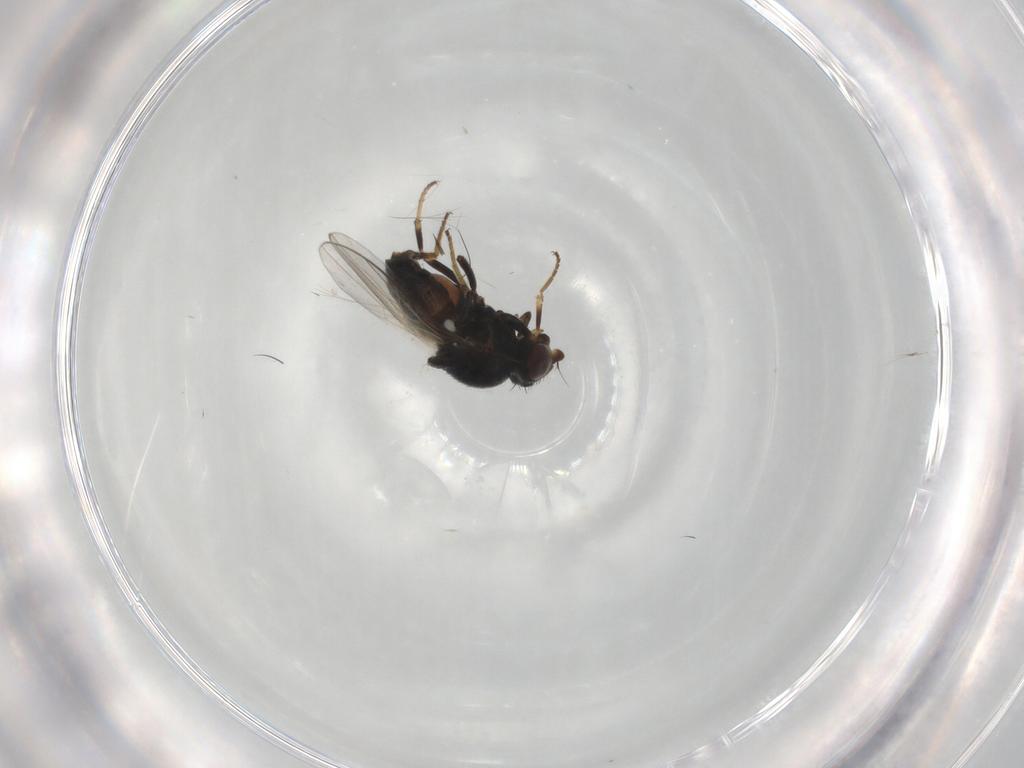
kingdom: Animalia
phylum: Arthropoda
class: Insecta
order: Diptera
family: Chloropidae
